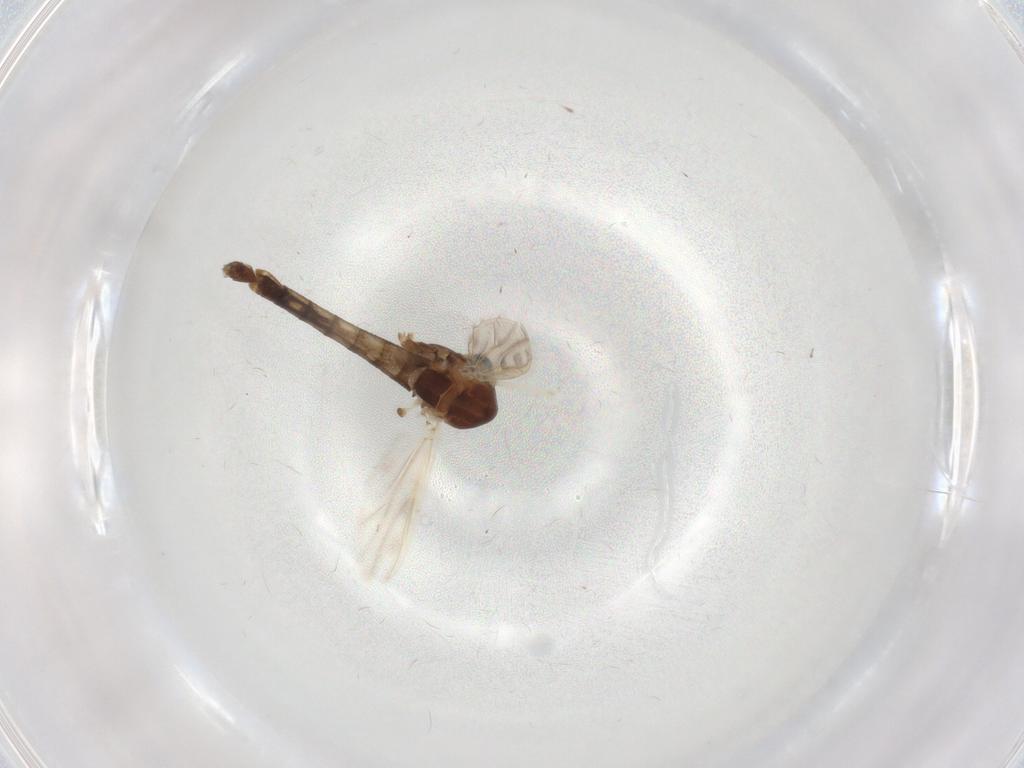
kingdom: Animalia
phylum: Arthropoda
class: Insecta
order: Diptera
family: Chironomidae
